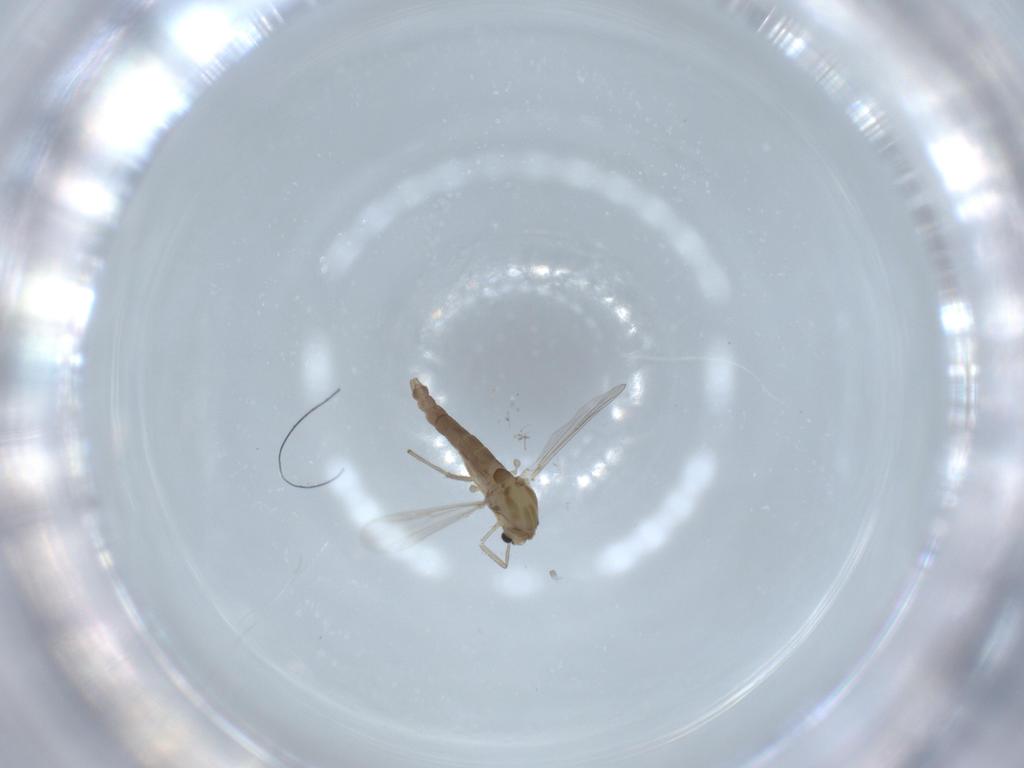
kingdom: Animalia
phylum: Arthropoda
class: Insecta
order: Diptera
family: Chironomidae
